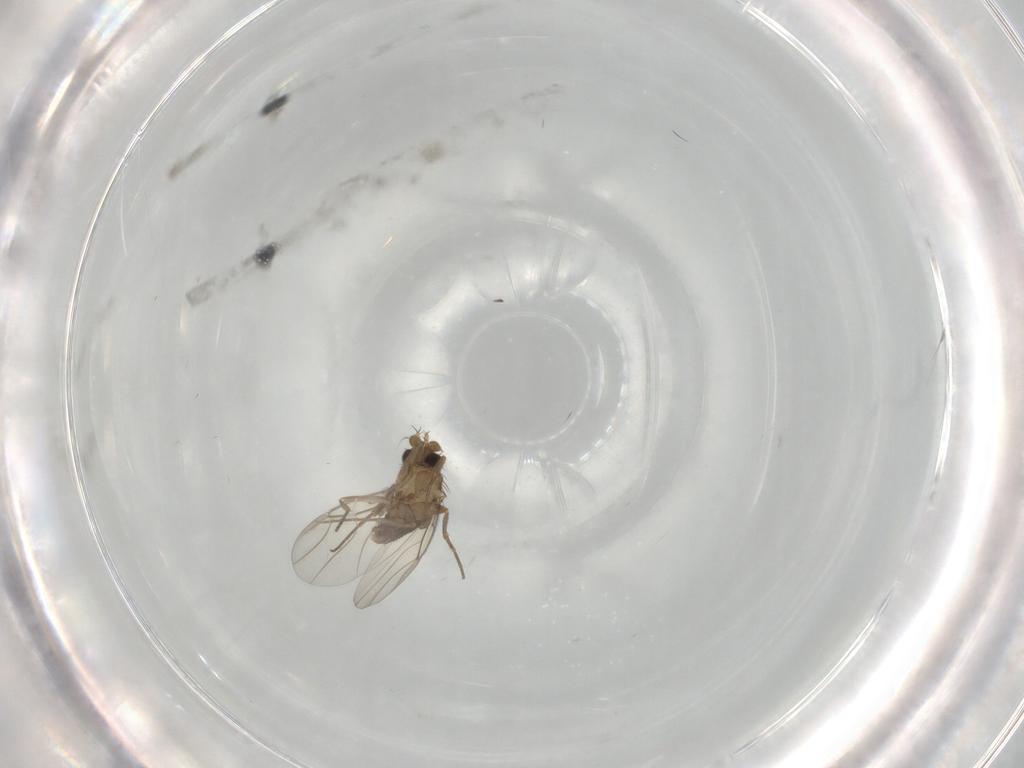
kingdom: Animalia
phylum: Arthropoda
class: Insecta
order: Diptera
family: Phoridae
